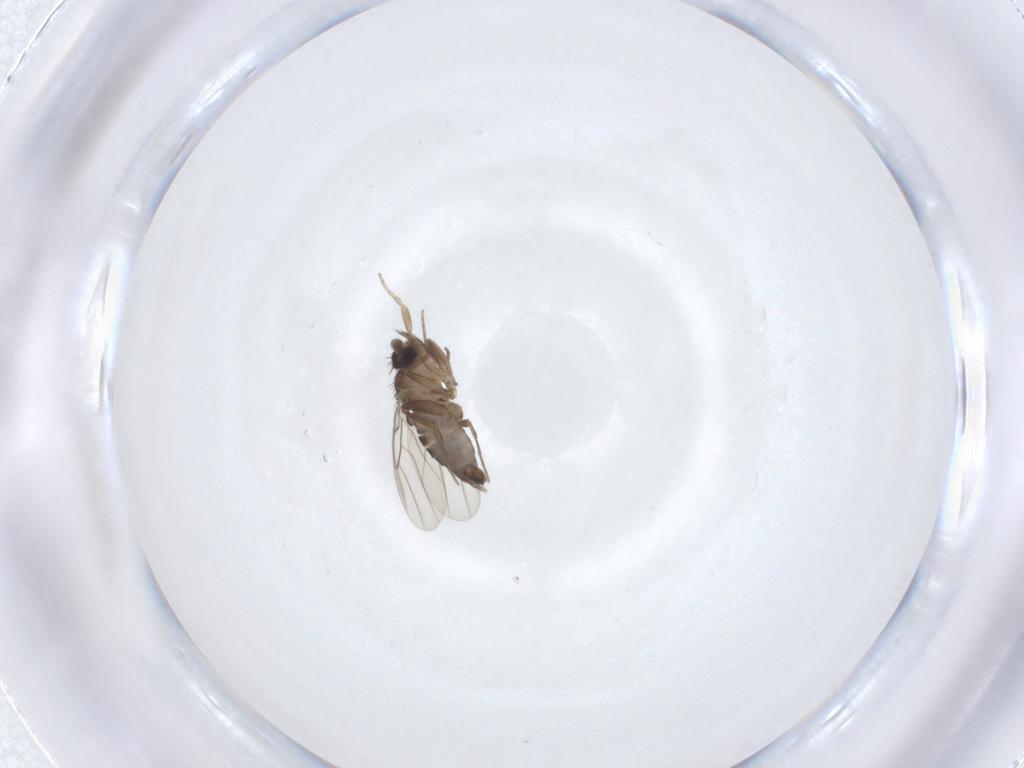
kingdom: Animalia
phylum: Arthropoda
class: Insecta
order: Diptera
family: Phoridae
